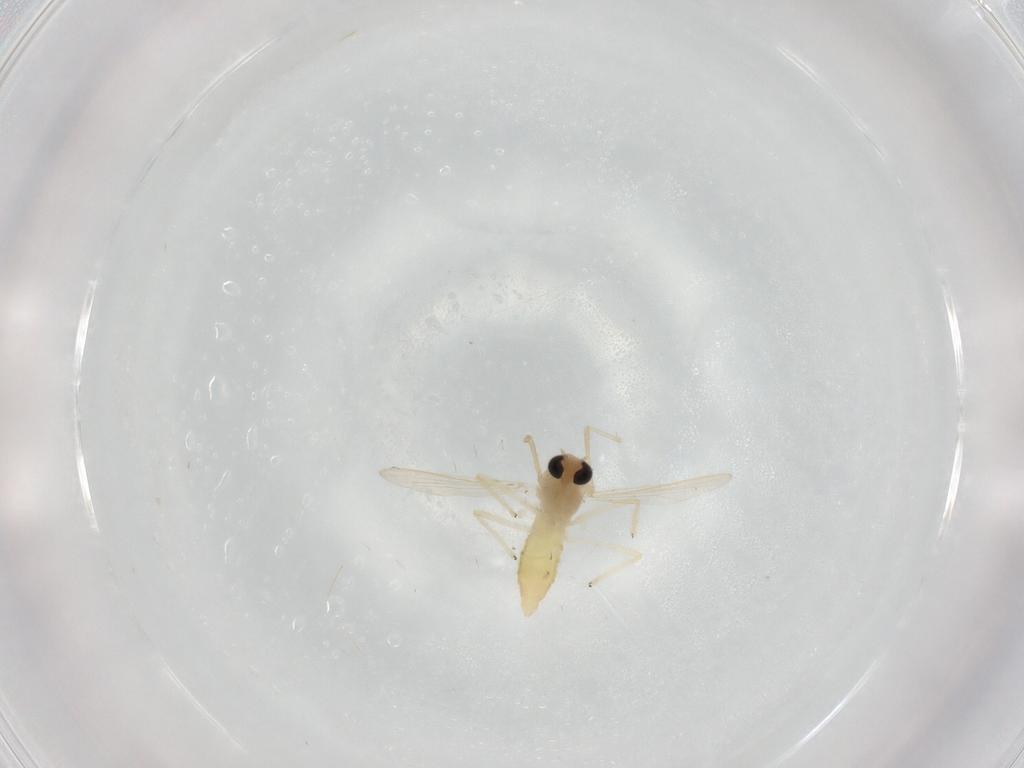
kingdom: Animalia
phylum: Arthropoda
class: Insecta
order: Diptera
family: Chironomidae
